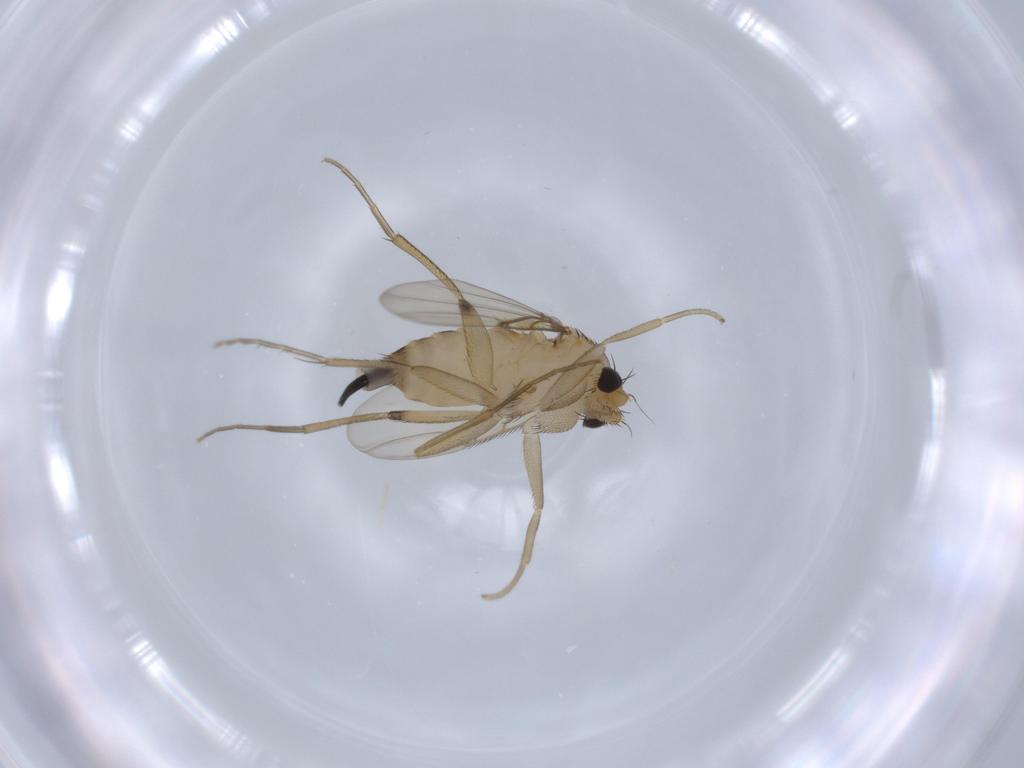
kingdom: Animalia
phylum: Arthropoda
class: Insecta
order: Diptera
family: Phoridae
